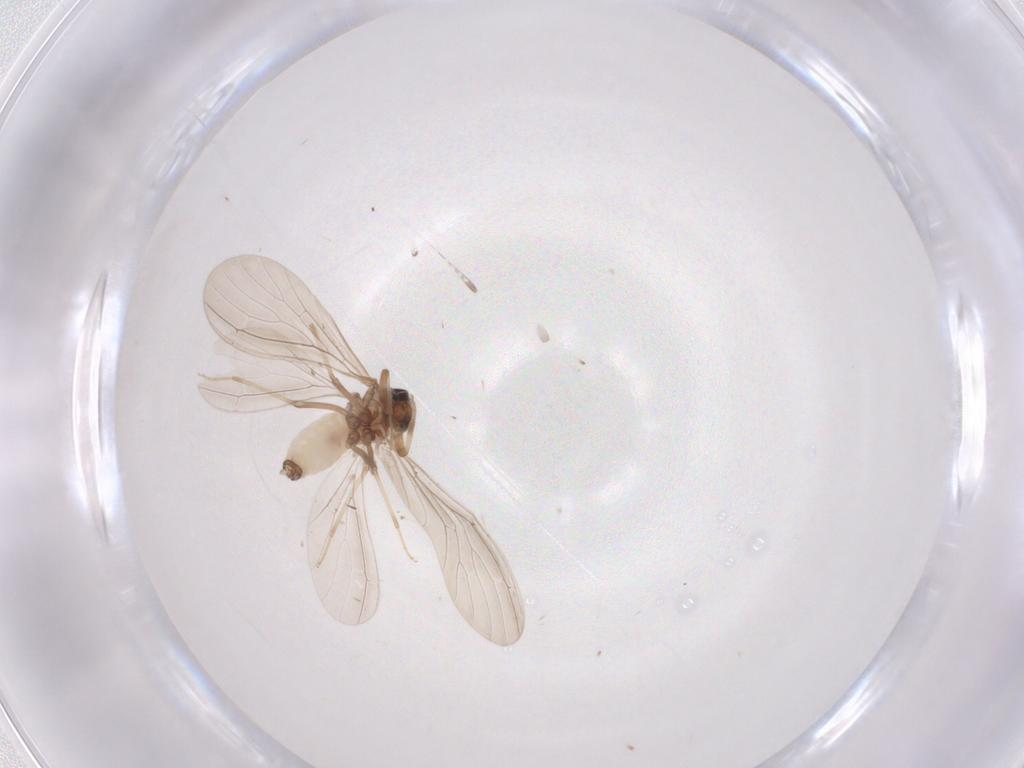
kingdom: Animalia
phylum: Arthropoda
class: Insecta
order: Neuroptera
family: Coniopterygidae
